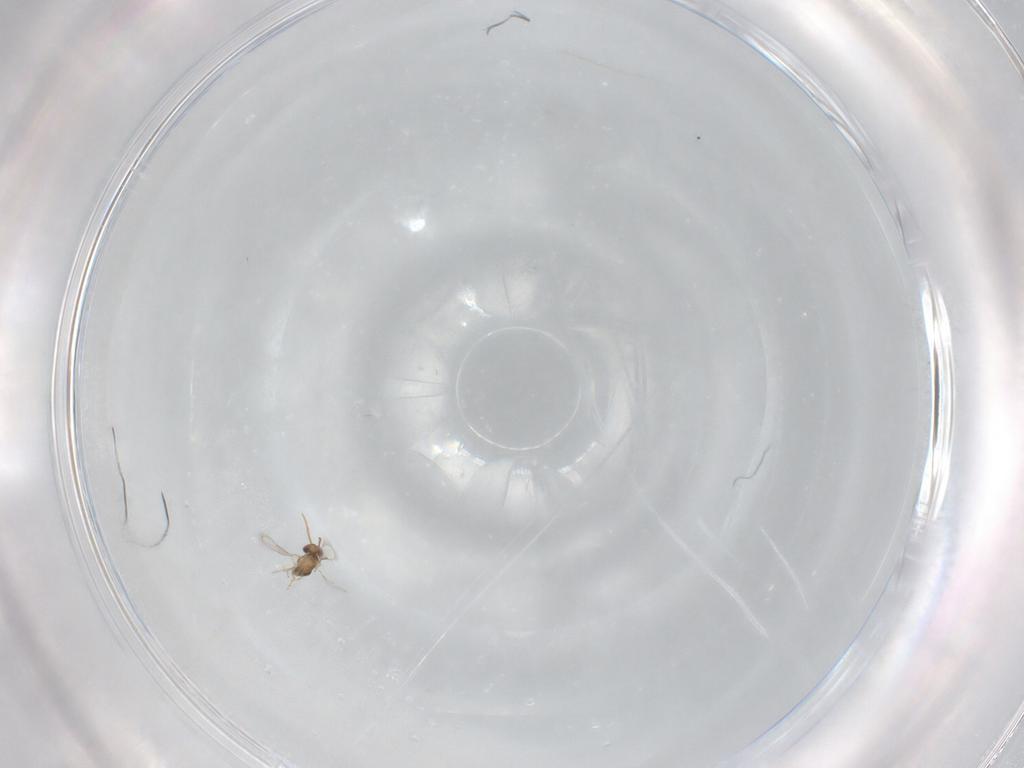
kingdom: Animalia
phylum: Arthropoda
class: Insecta
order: Hymenoptera
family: Aphelinidae
